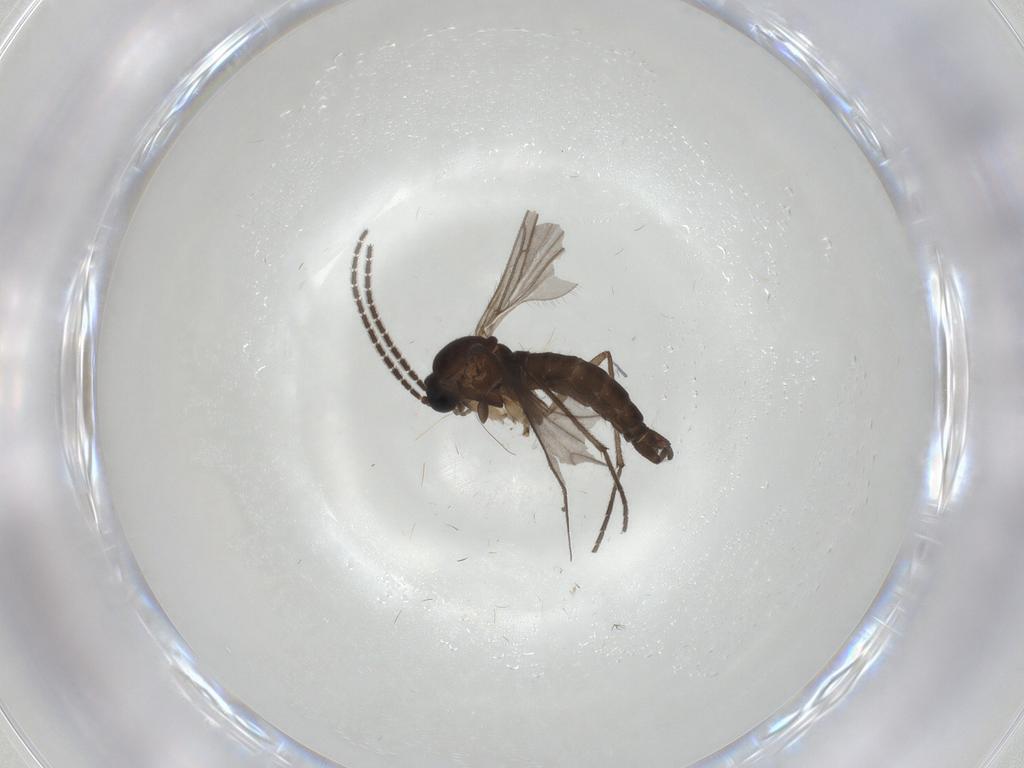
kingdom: Animalia
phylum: Arthropoda
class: Insecta
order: Diptera
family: Sciaridae
